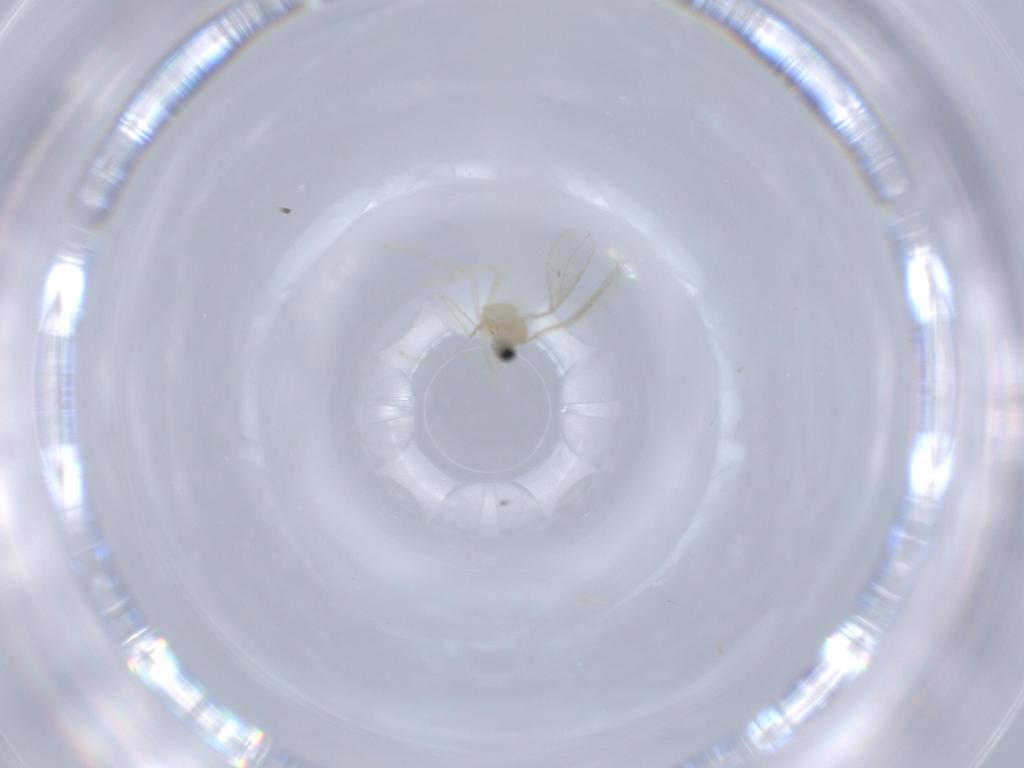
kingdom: Animalia
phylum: Arthropoda
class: Insecta
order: Diptera
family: Cecidomyiidae
